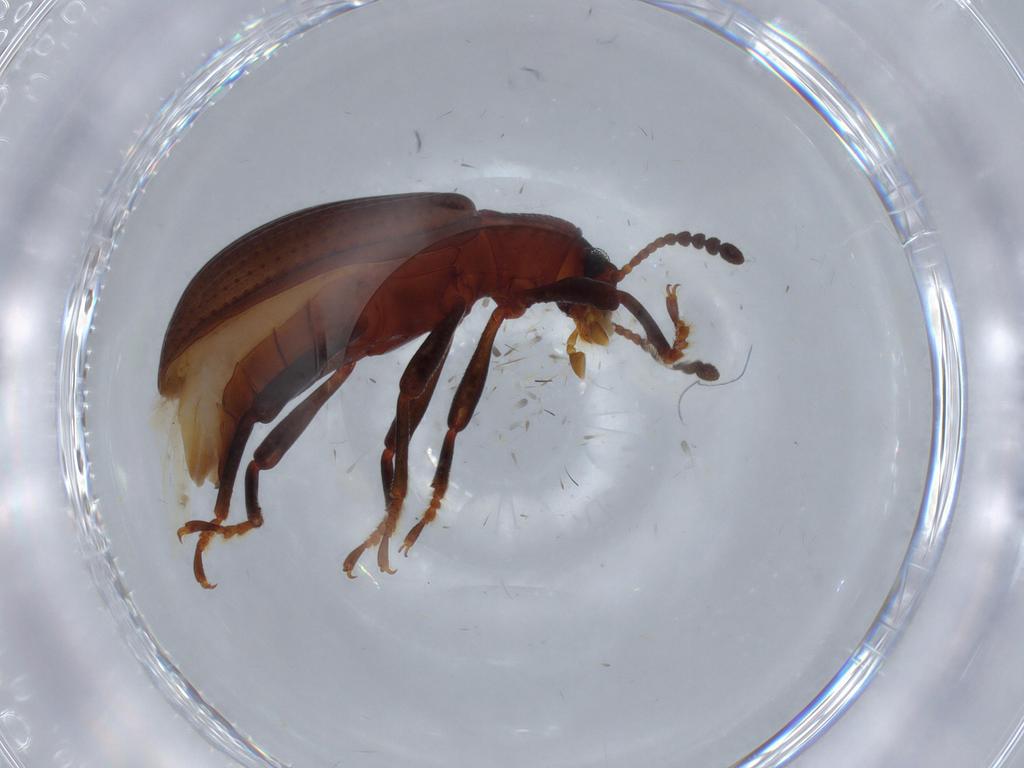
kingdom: Animalia
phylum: Arthropoda
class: Insecta
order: Coleoptera
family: Ptilodactylidae
